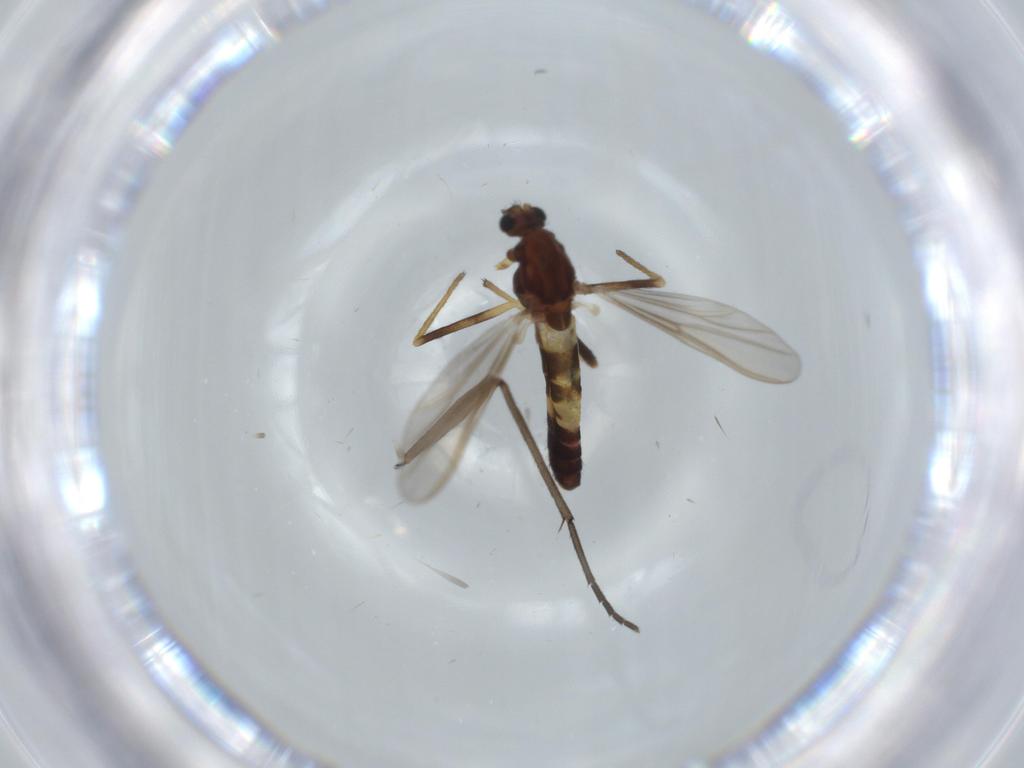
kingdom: Animalia
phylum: Arthropoda
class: Insecta
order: Diptera
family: Sciaridae
